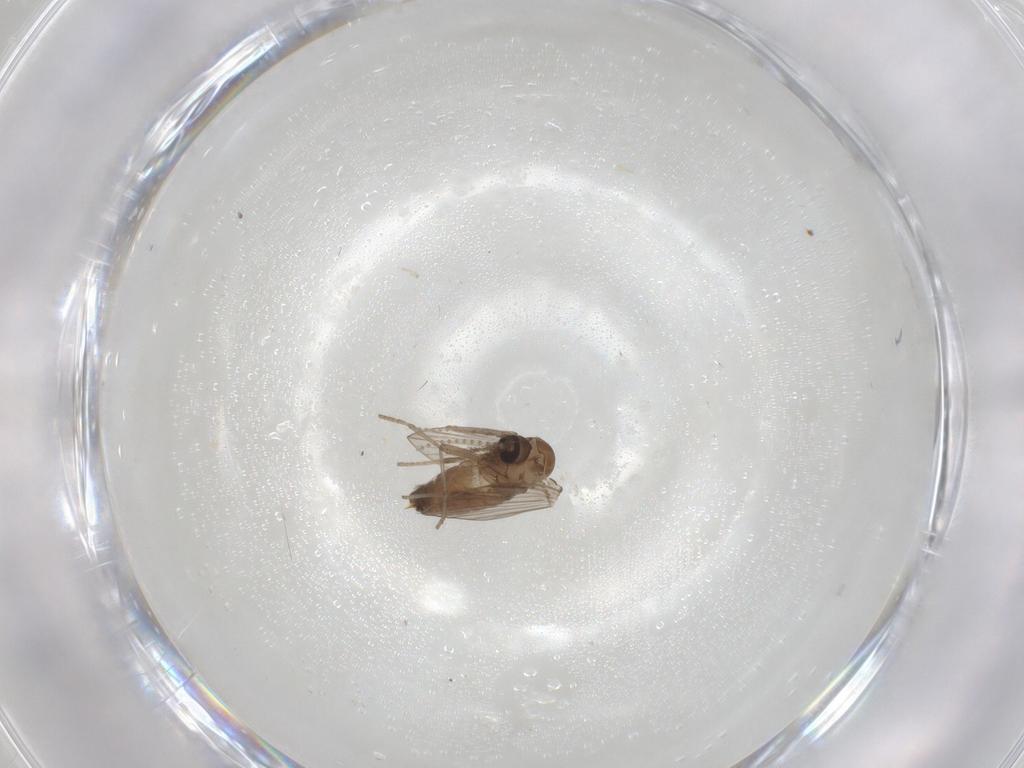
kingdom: Animalia
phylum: Arthropoda
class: Insecta
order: Diptera
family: Psychodidae
